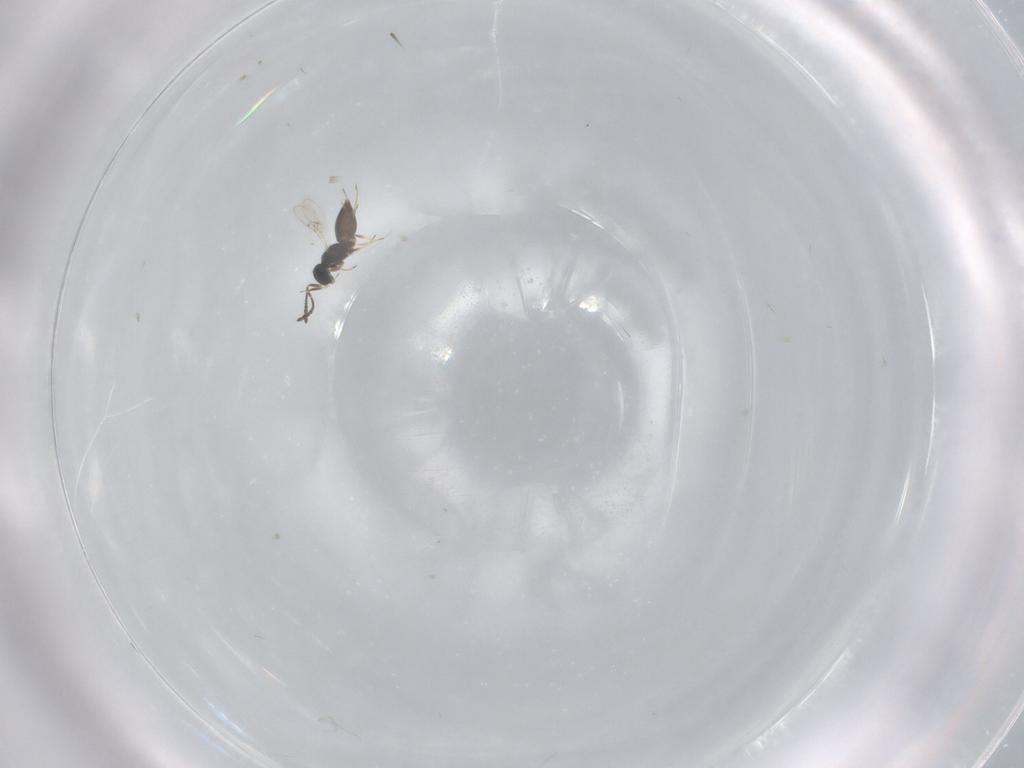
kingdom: Animalia
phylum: Arthropoda
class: Insecta
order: Hymenoptera
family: Scelionidae
